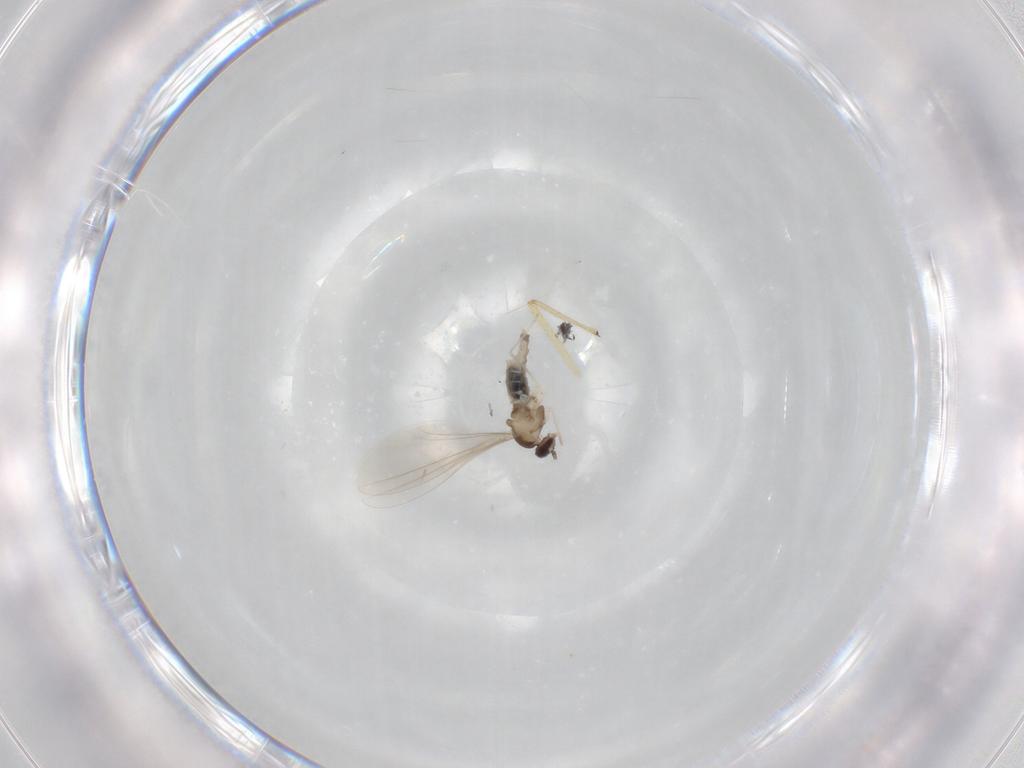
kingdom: Animalia
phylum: Arthropoda
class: Insecta
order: Diptera
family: Cecidomyiidae
